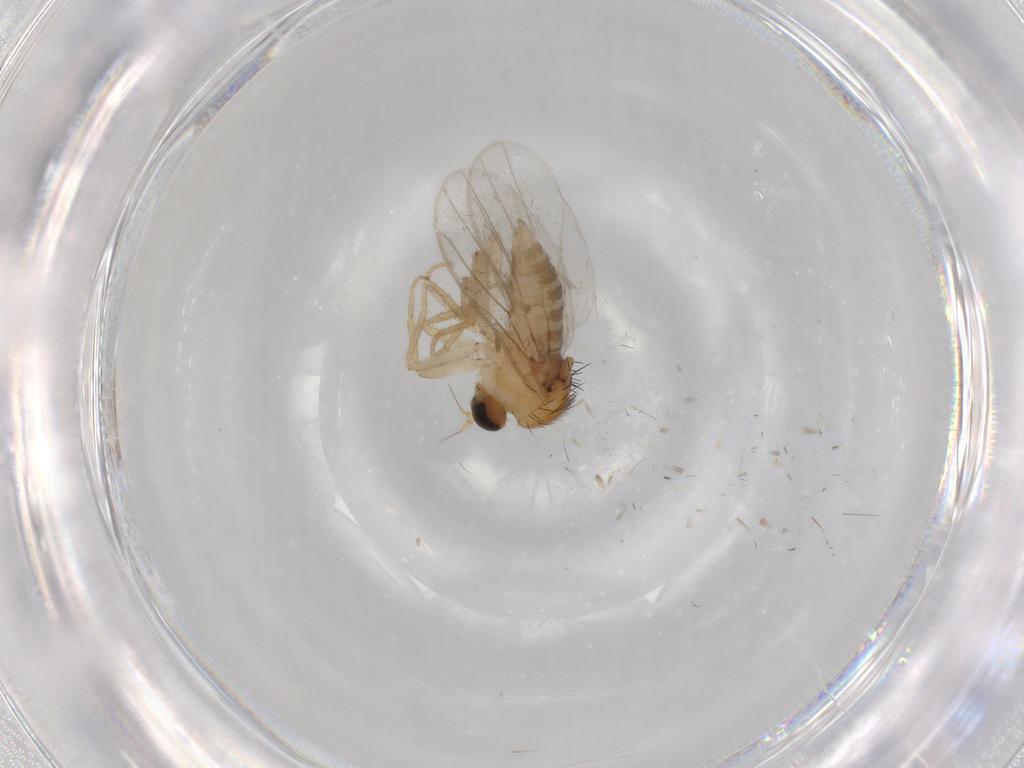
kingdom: Animalia
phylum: Arthropoda
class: Insecta
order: Diptera
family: Hybotidae
